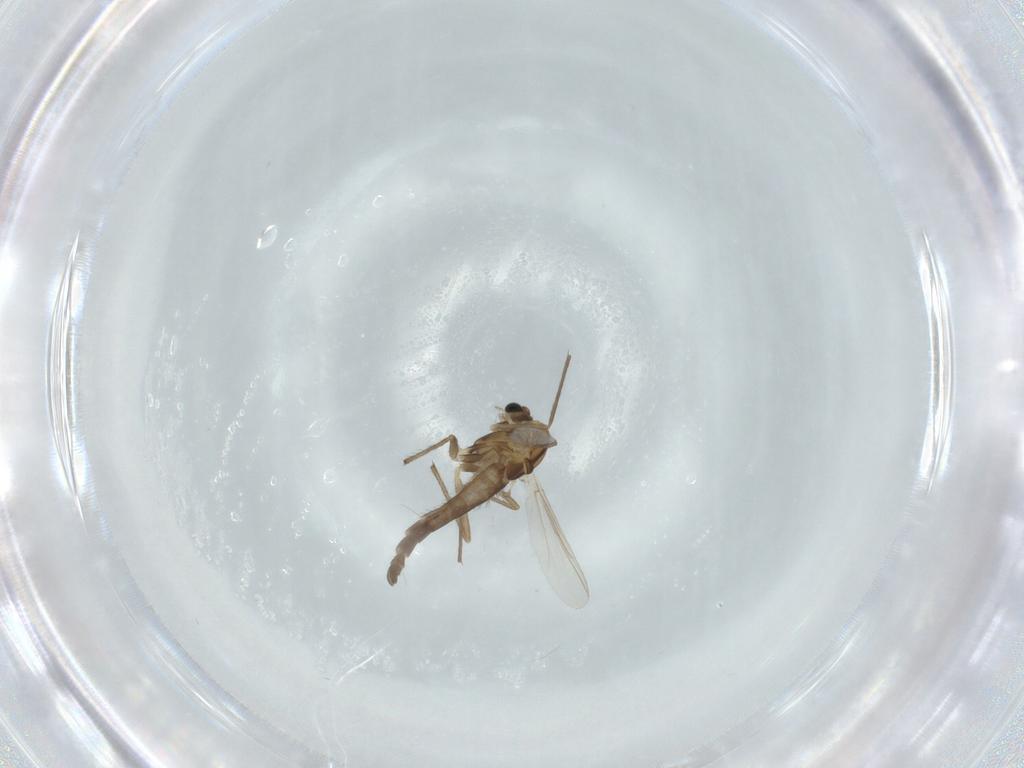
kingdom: Animalia
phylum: Arthropoda
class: Insecta
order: Diptera
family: Chironomidae
